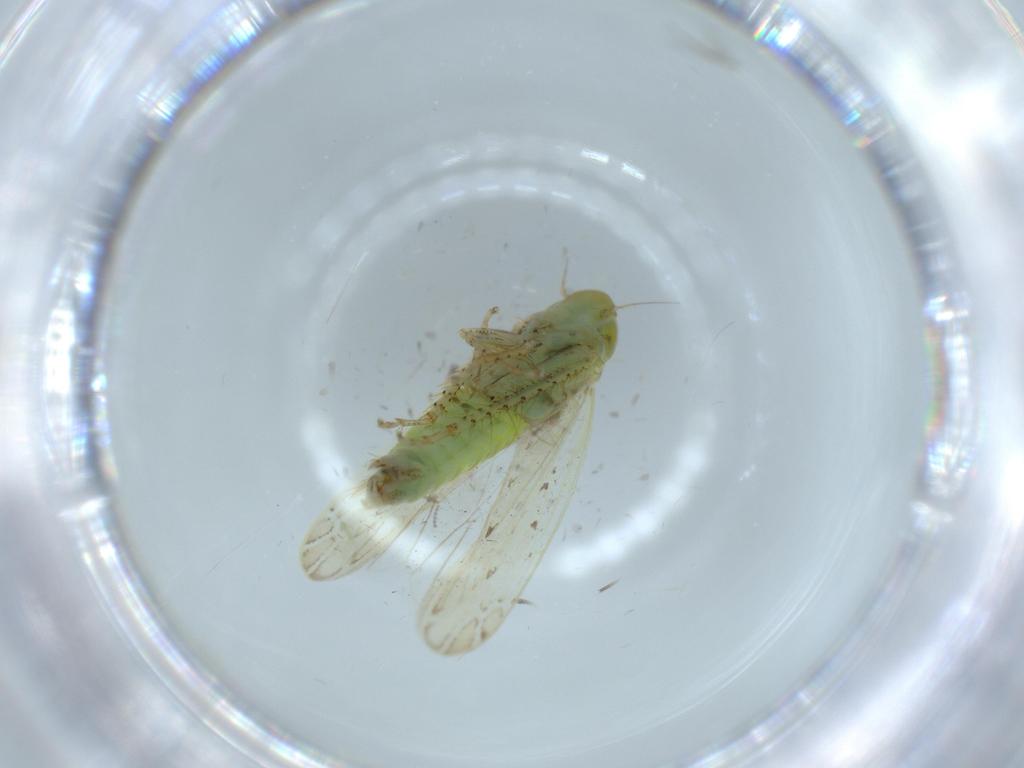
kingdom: Animalia
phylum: Arthropoda
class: Insecta
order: Hemiptera
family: Cicadellidae
